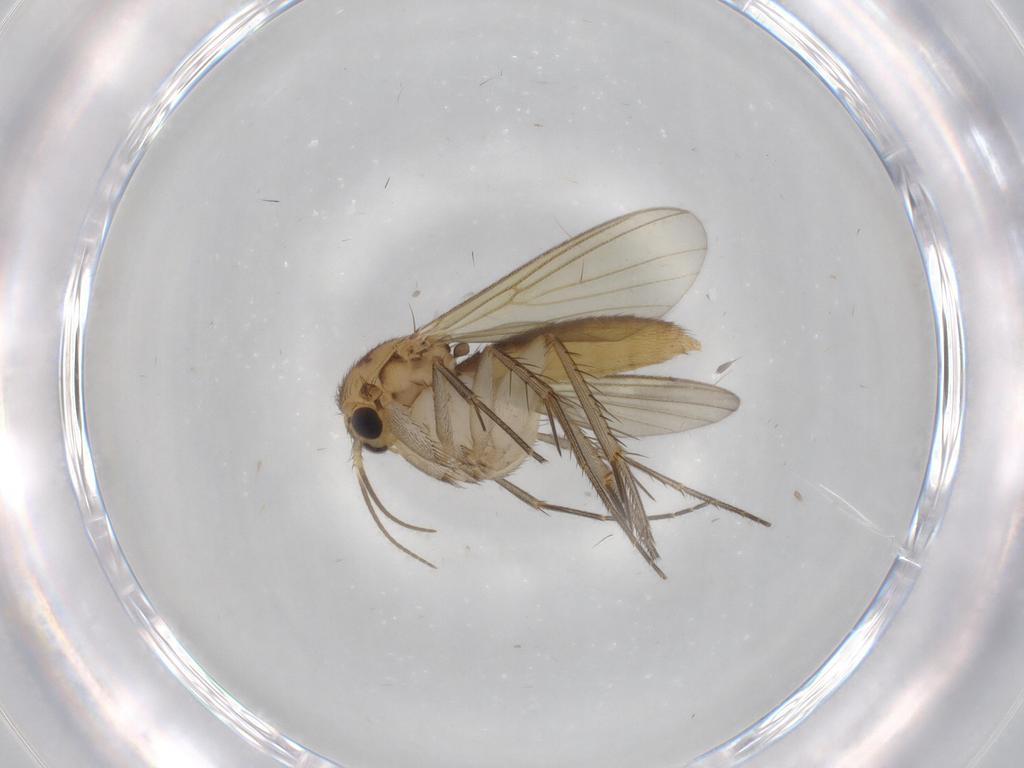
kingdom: Animalia
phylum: Arthropoda
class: Insecta
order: Diptera
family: Mycetophilidae
